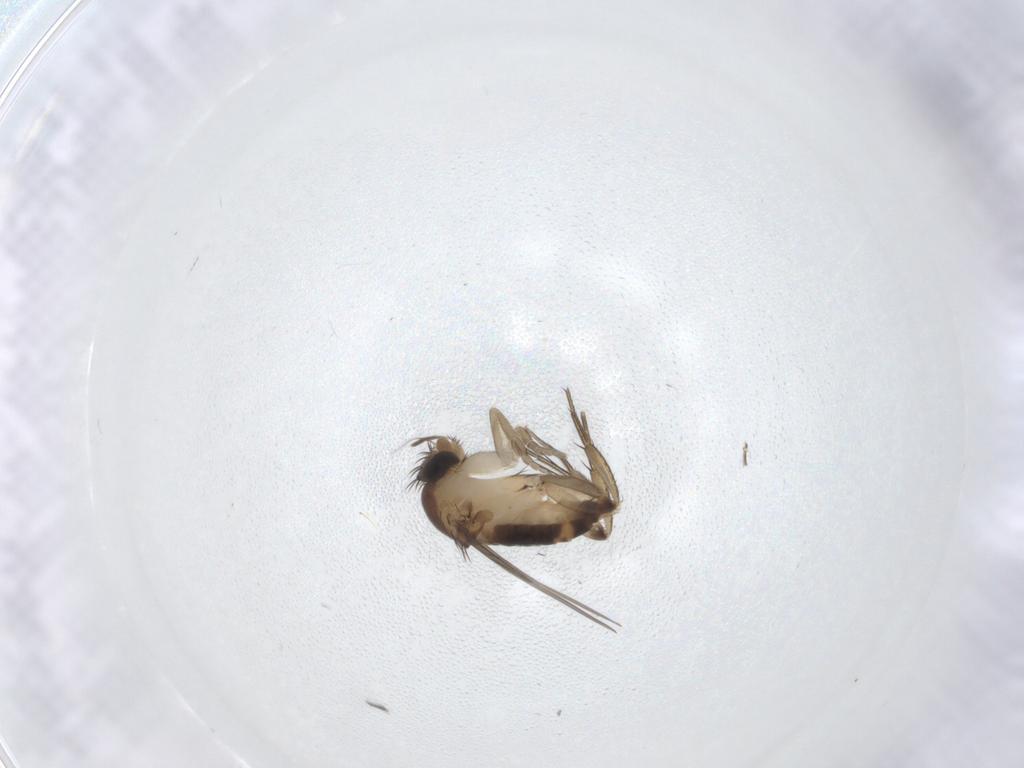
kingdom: Animalia
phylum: Arthropoda
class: Insecta
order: Diptera
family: Phoridae
